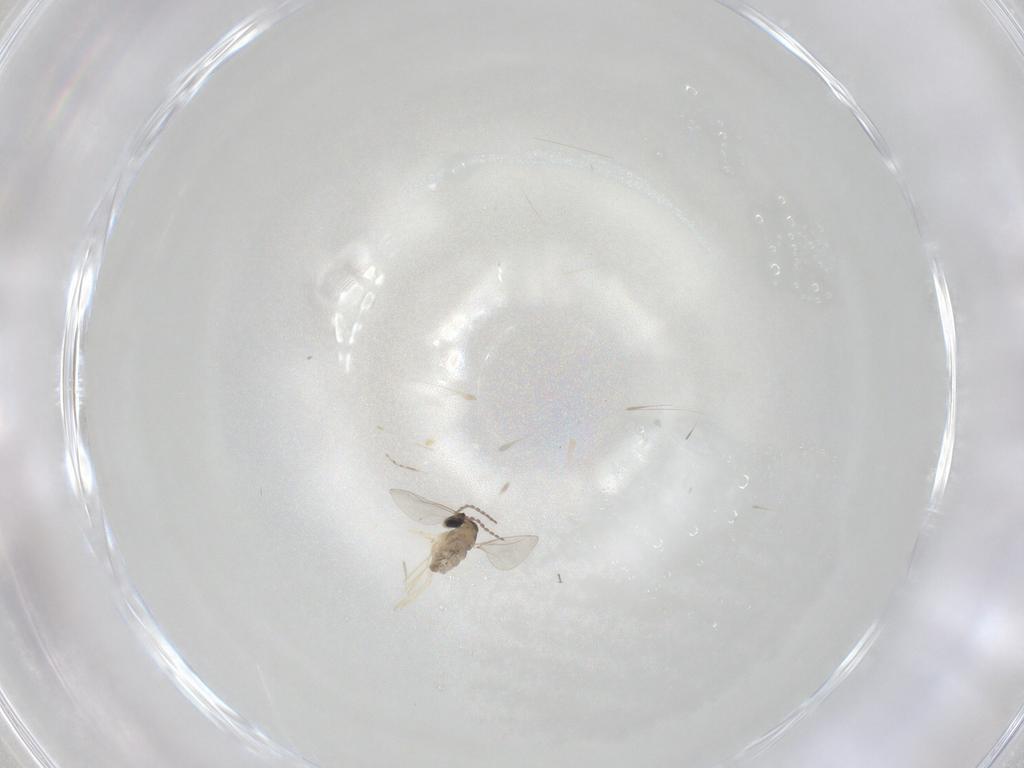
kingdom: Animalia
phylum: Arthropoda
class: Insecta
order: Diptera
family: Cecidomyiidae
